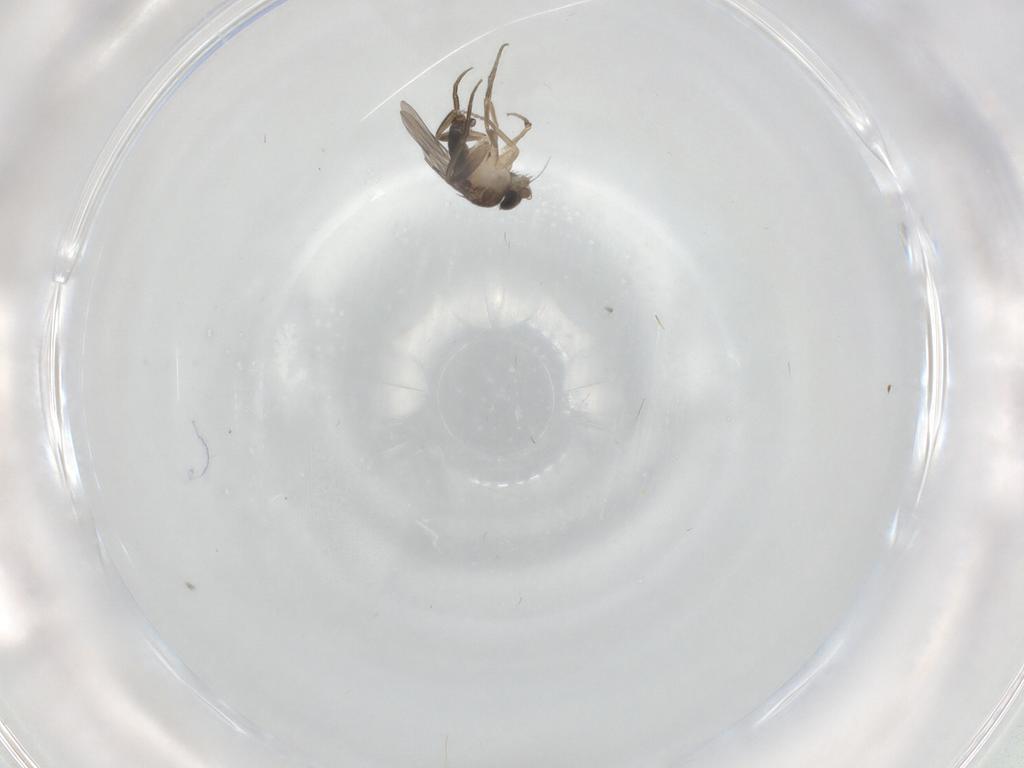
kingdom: Animalia
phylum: Arthropoda
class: Insecta
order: Diptera
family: Phoridae
